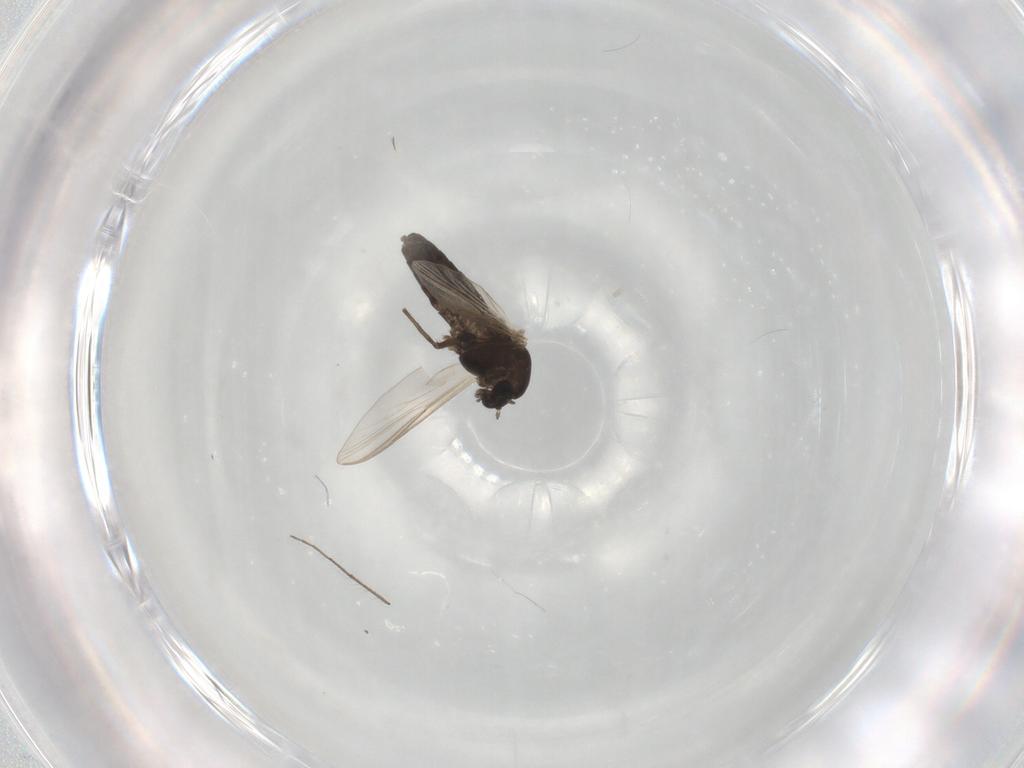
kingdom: Animalia
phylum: Arthropoda
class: Insecta
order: Diptera
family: Chironomidae
